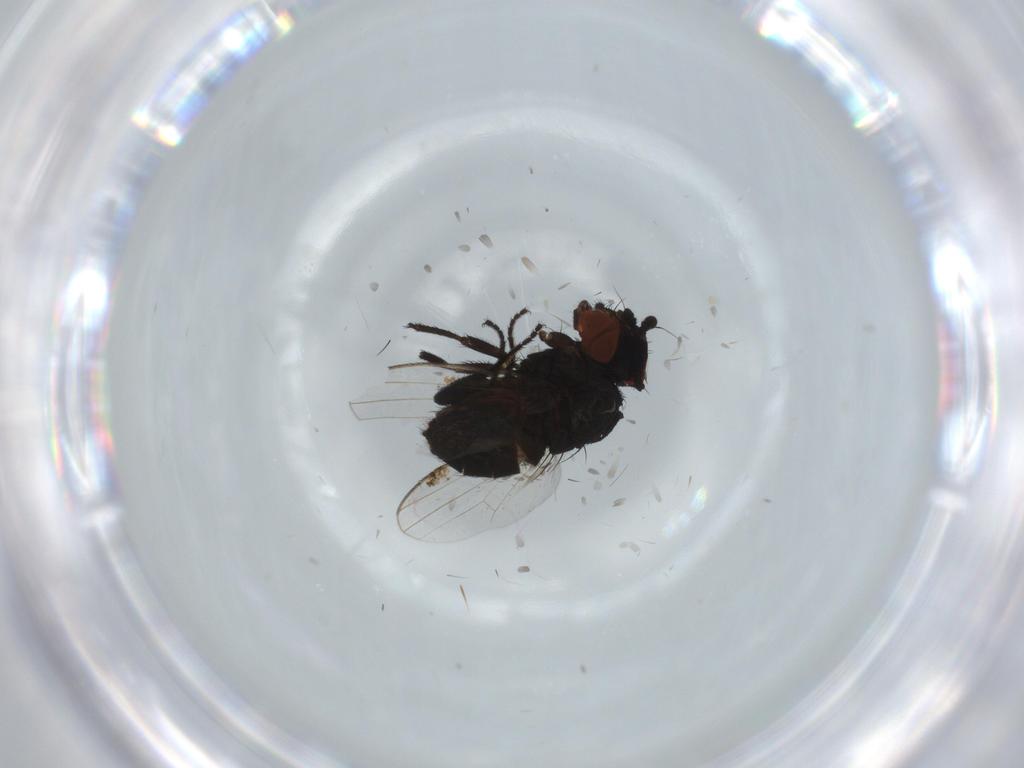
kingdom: Animalia
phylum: Arthropoda
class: Insecta
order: Diptera
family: Milichiidae
